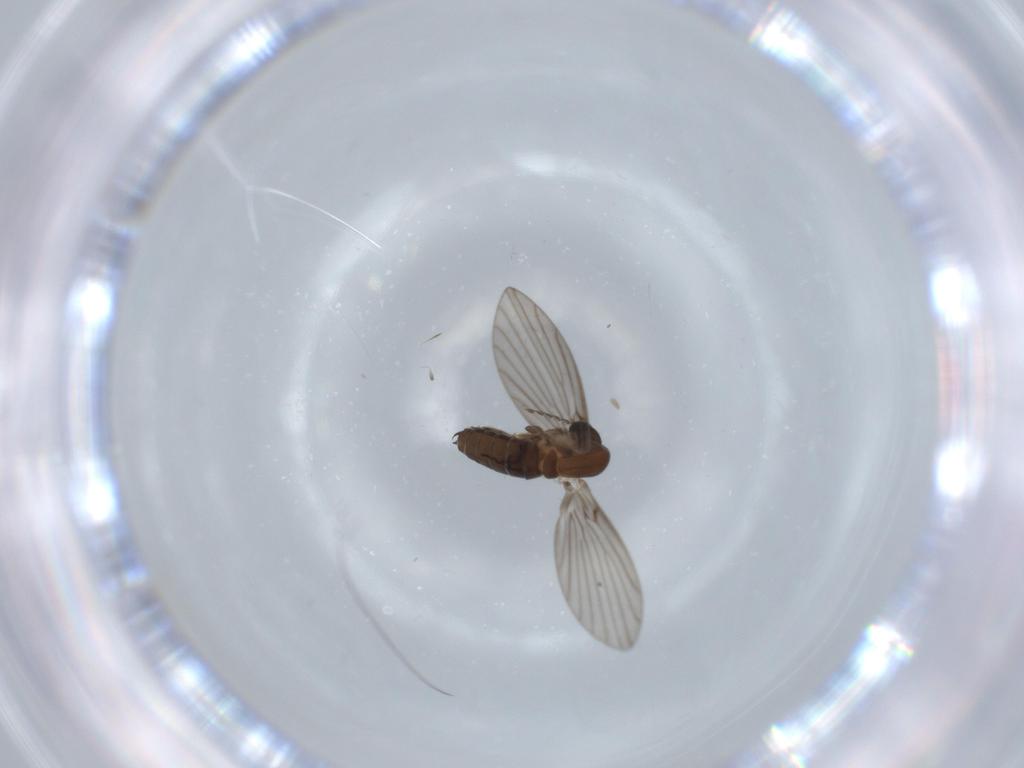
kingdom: Animalia
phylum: Arthropoda
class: Insecta
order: Diptera
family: Psychodidae
